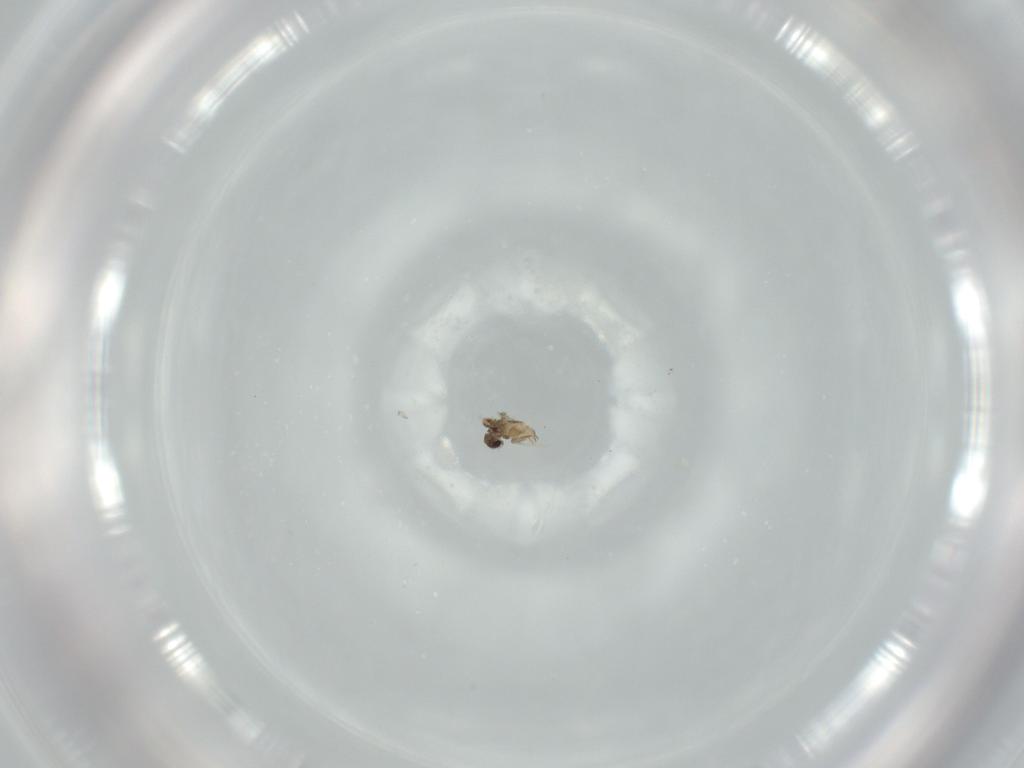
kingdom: Animalia
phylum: Arthropoda
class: Insecta
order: Diptera
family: Cecidomyiidae
